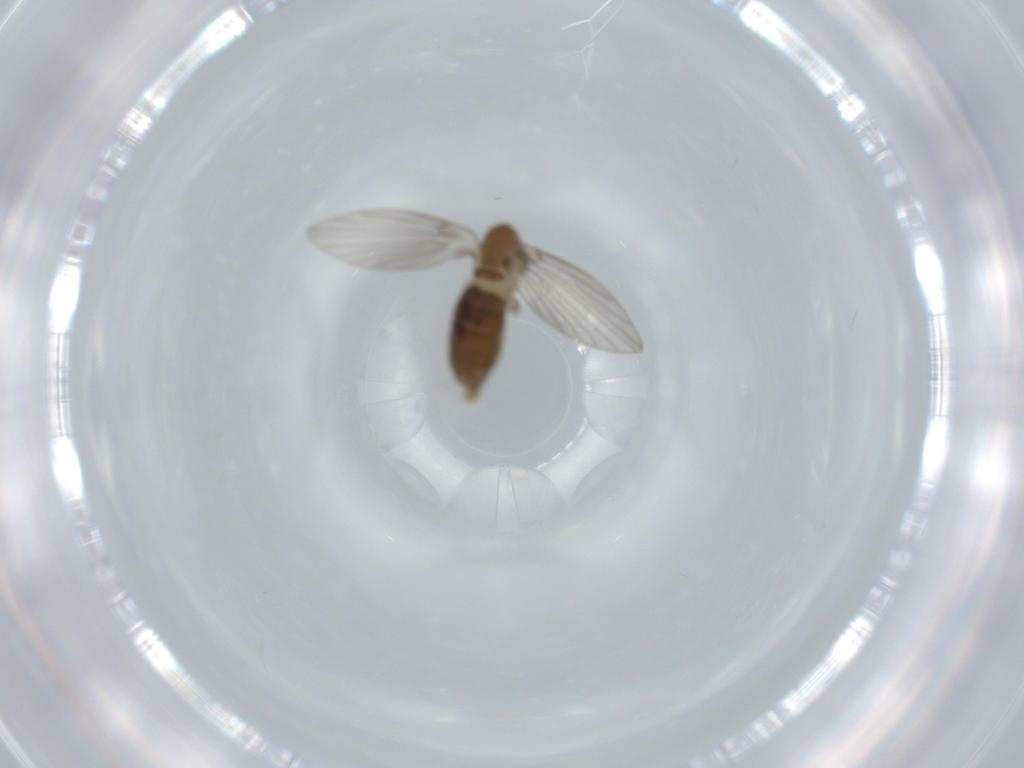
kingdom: Animalia
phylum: Arthropoda
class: Insecta
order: Diptera
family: Psychodidae
